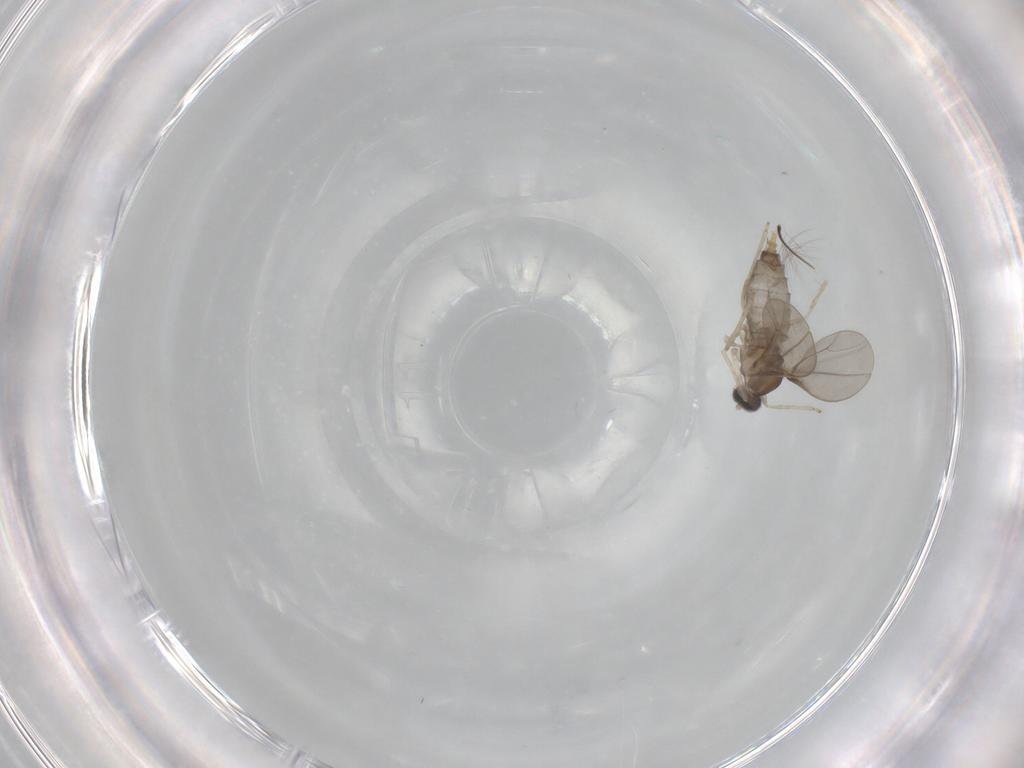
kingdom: Animalia
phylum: Arthropoda
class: Insecta
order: Diptera
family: Chironomidae
